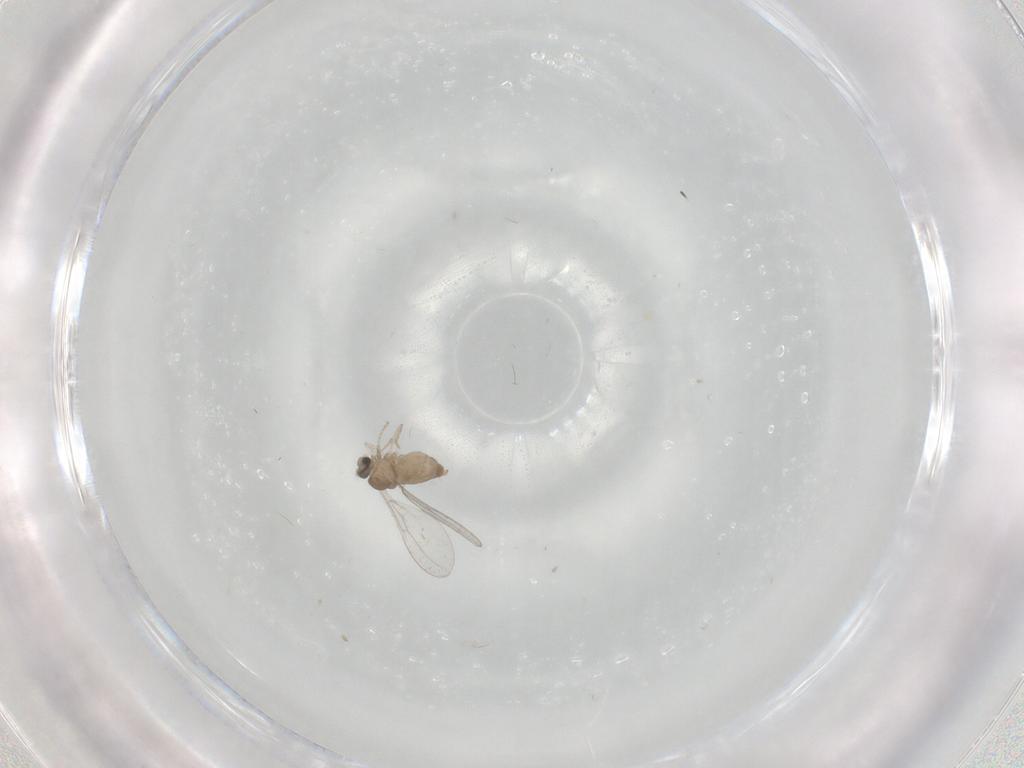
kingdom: Animalia
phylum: Arthropoda
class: Insecta
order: Diptera
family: Cecidomyiidae
